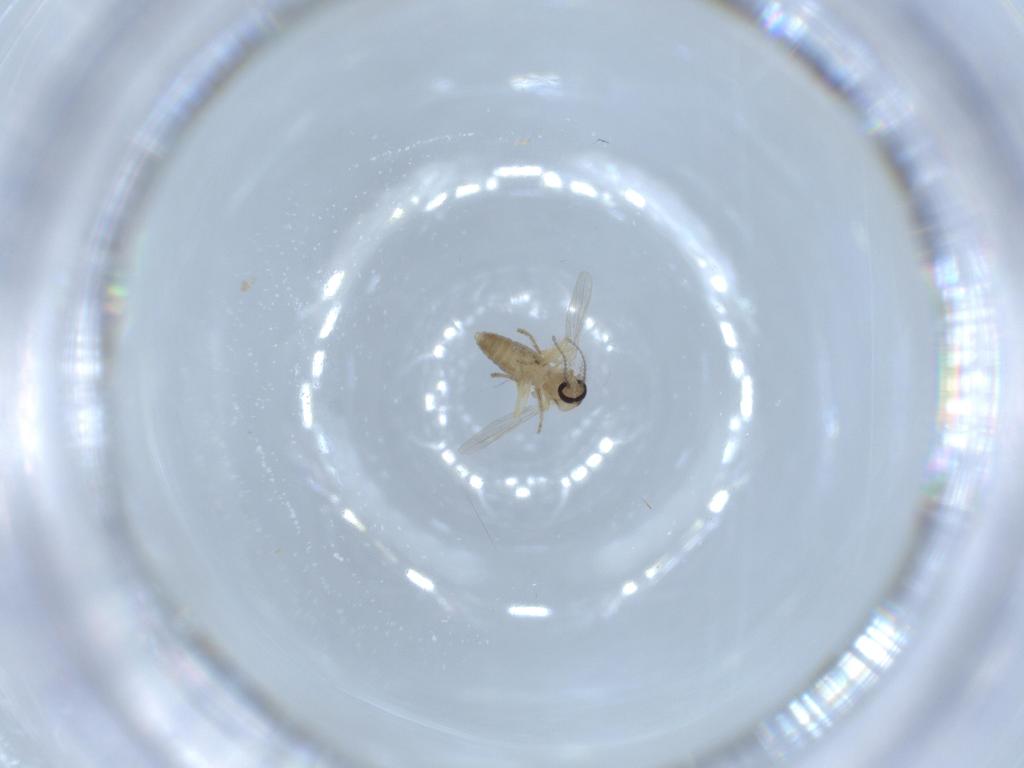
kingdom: Animalia
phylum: Arthropoda
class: Insecta
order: Diptera
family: Ceratopogonidae
